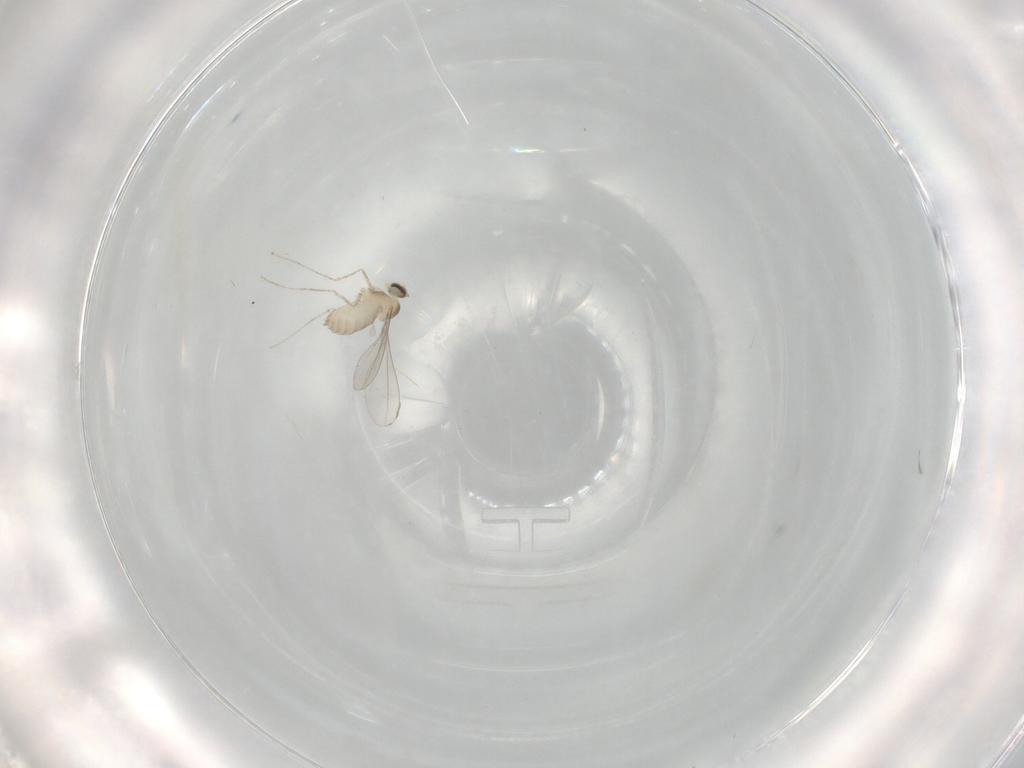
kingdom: Animalia
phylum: Arthropoda
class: Insecta
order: Diptera
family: Cecidomyiidae
